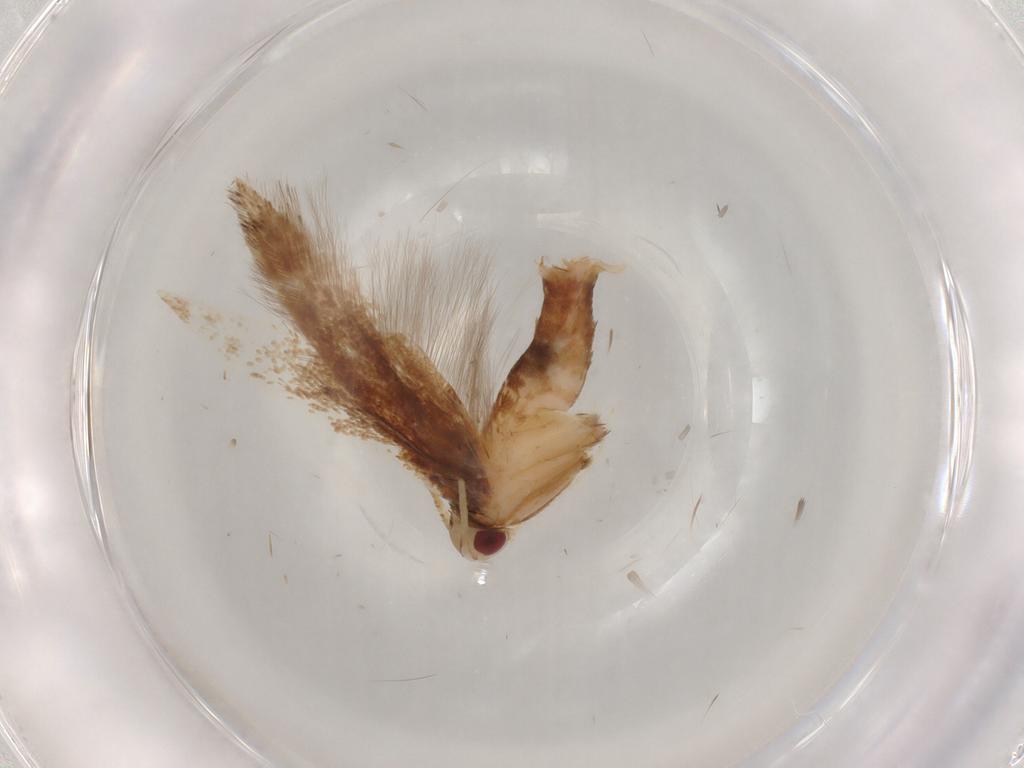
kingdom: Animalia
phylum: Arthropoda
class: Insecta
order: Lepidoptera
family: Cosmopterigidae
